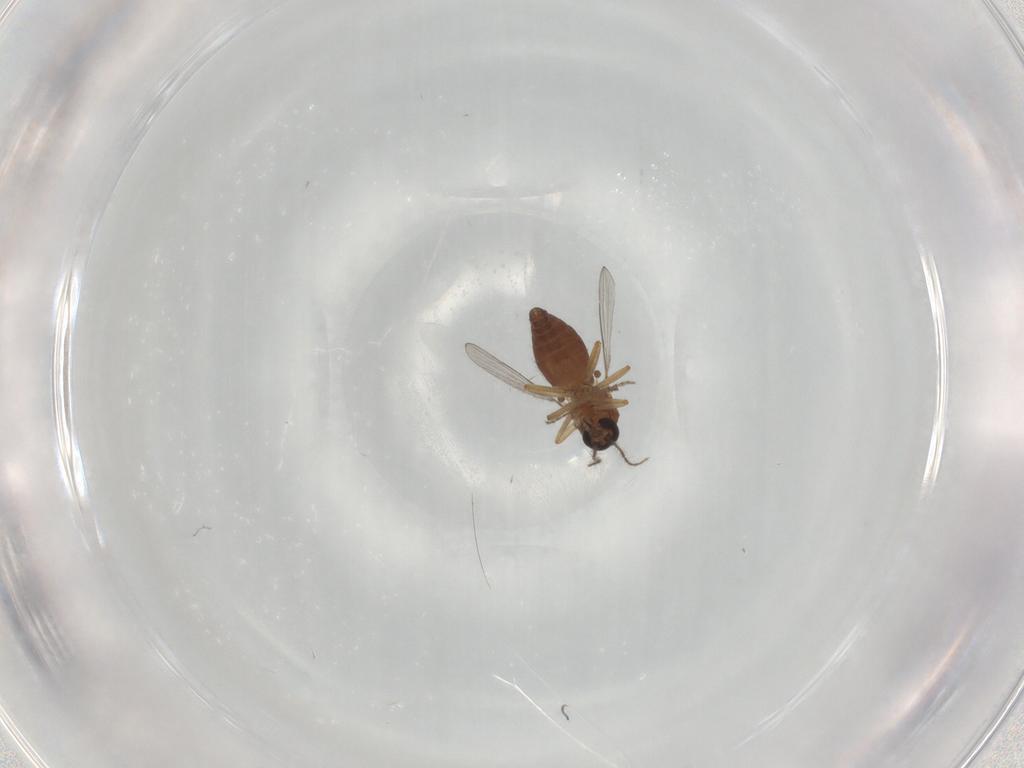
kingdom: Animalia
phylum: Arthropoda
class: Insecta
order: Diptera
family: Ceratopogonidae
